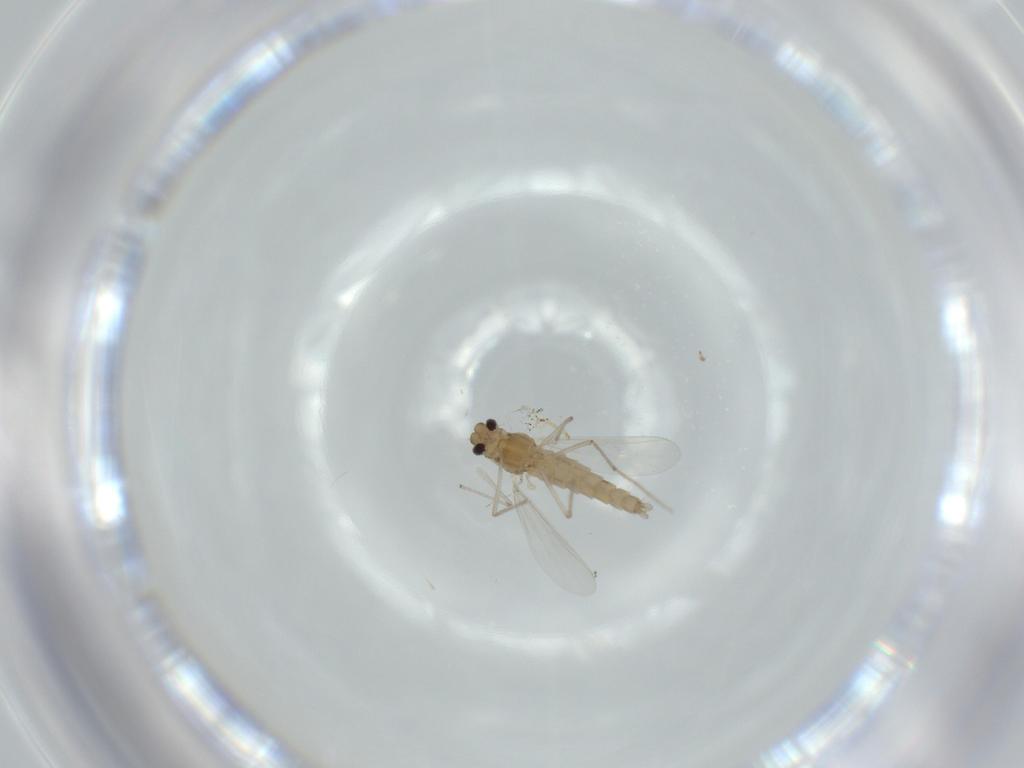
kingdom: Animalia
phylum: Arthropoda
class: Insecta
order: Diptera
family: Chironomidae
